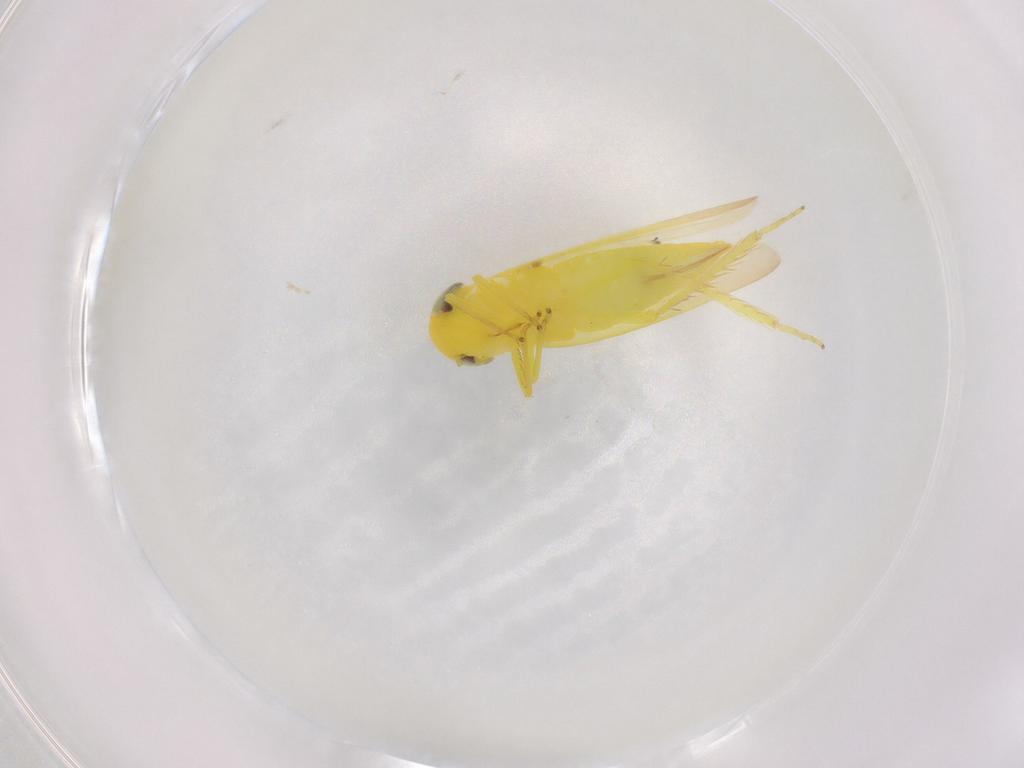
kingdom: Animalia
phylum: Arthropoda
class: Insecta
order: Hemiptera
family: Cicadellidae
